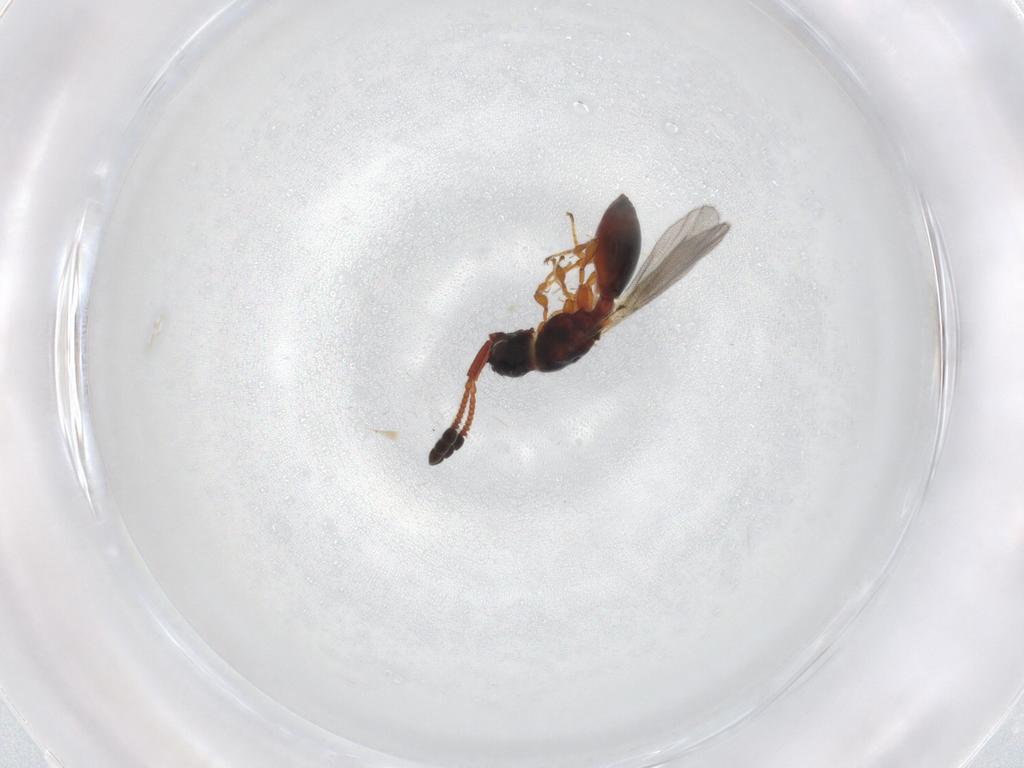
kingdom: Animalia
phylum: Arthropoda
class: Insecta
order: Hymenoptera
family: Diapriidae
